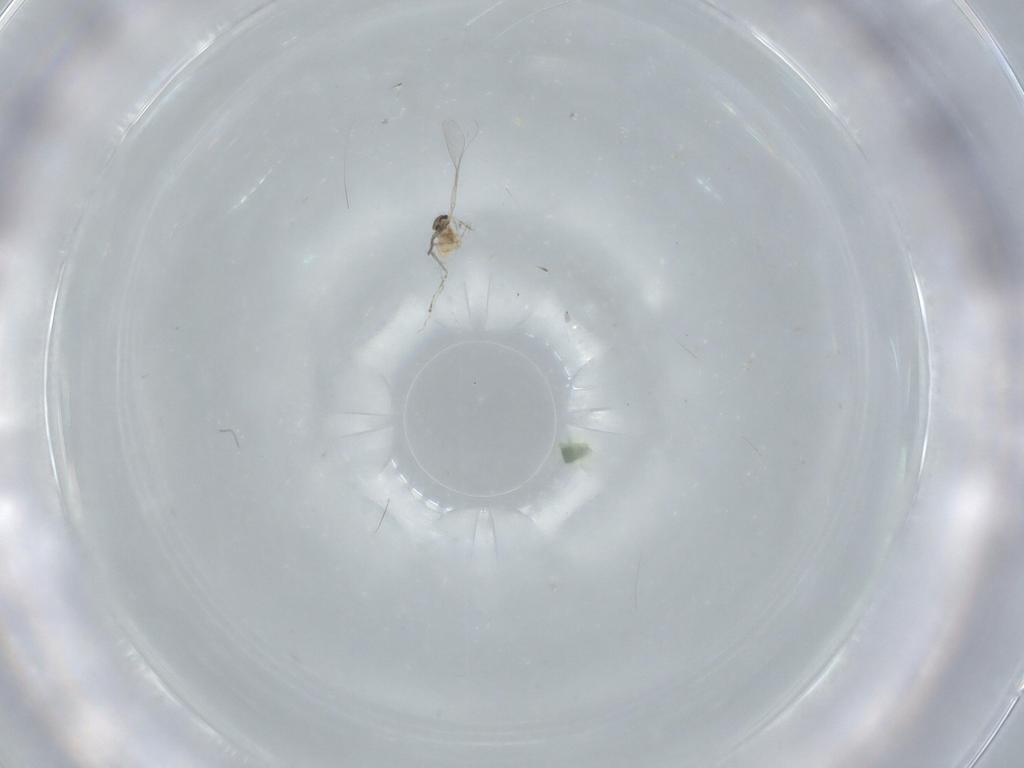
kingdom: Animalia
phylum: Arthropoda
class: Insecta
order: Diptera
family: Cecidomyiidae
